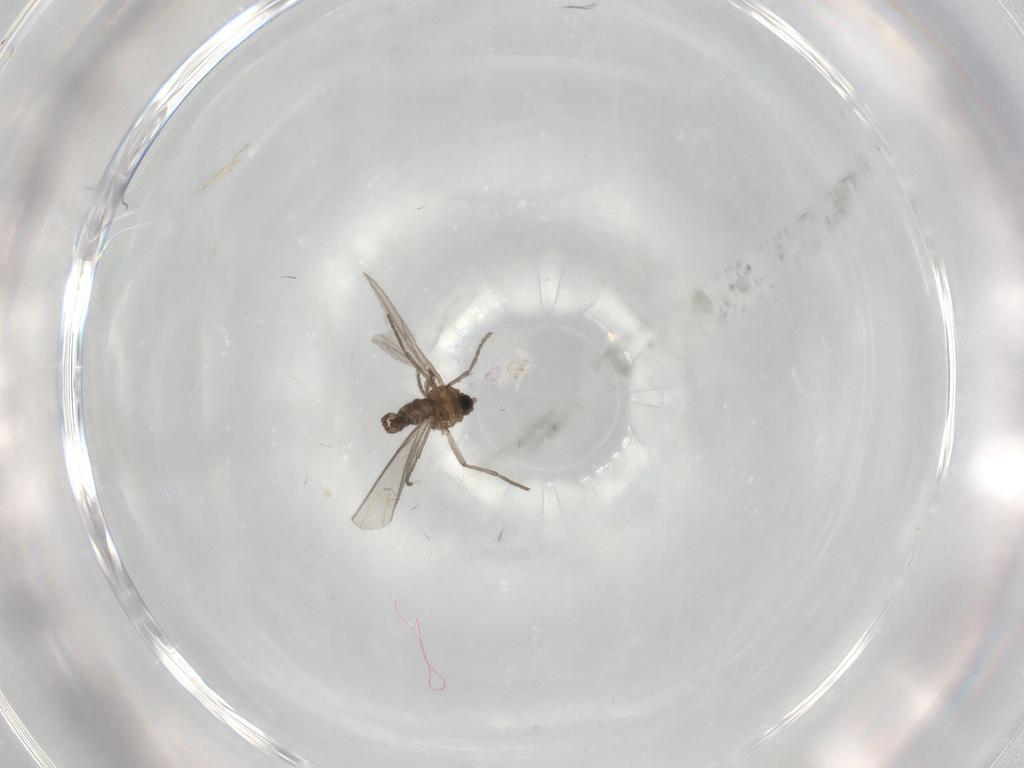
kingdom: Animalia
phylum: Arthropoda
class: Insecta
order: Diptera
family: Sciaridae
